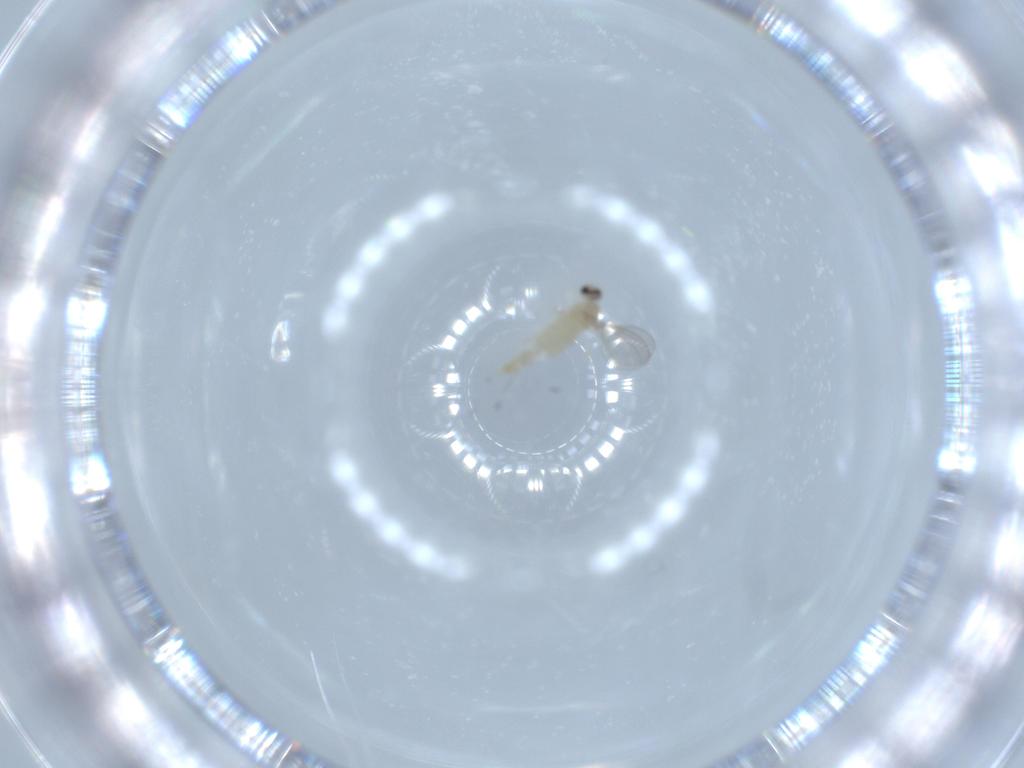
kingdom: Animalia
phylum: Arthropoda
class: Insecta
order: Diptera
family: Cecidomyiidae
